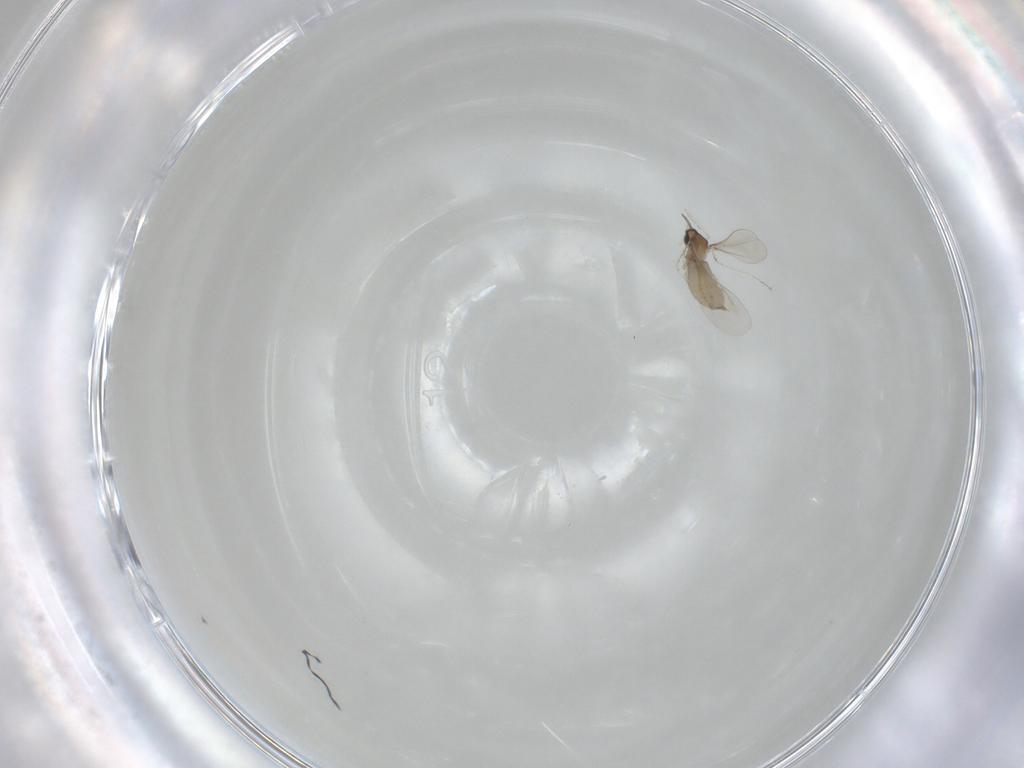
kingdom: Animalia
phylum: Arthropoda
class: Insecta
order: Diptera
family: Cecidomyiidae
